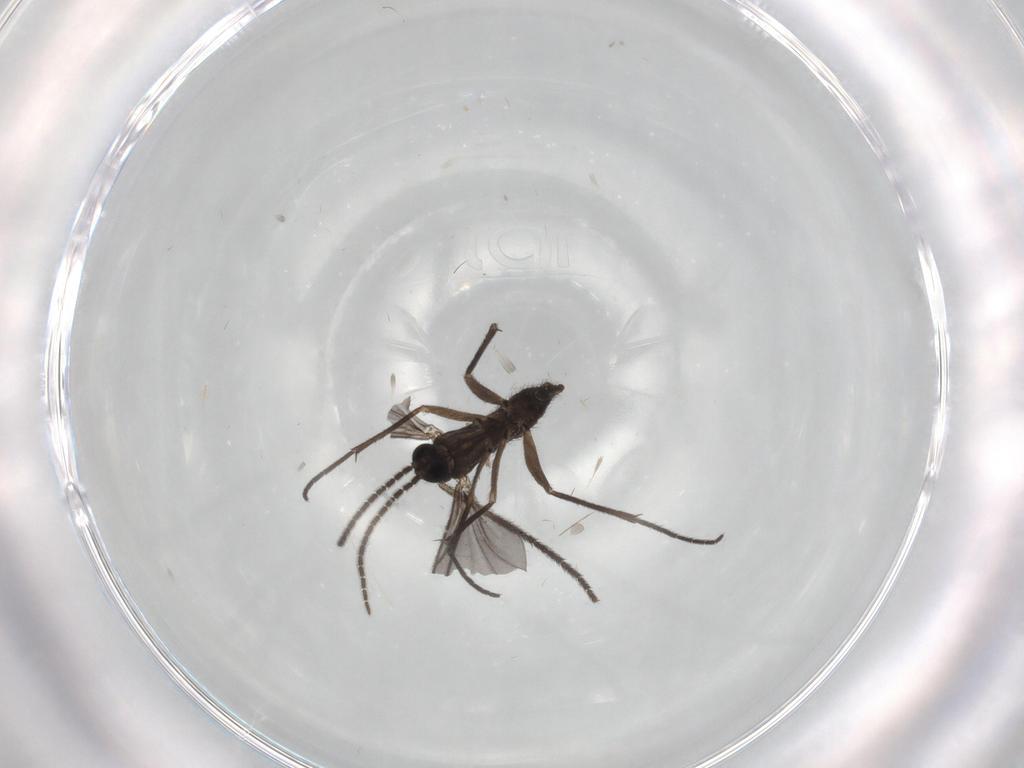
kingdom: Animalia
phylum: Arthropoda
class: Insecta
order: Diptera
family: Sciaridae
